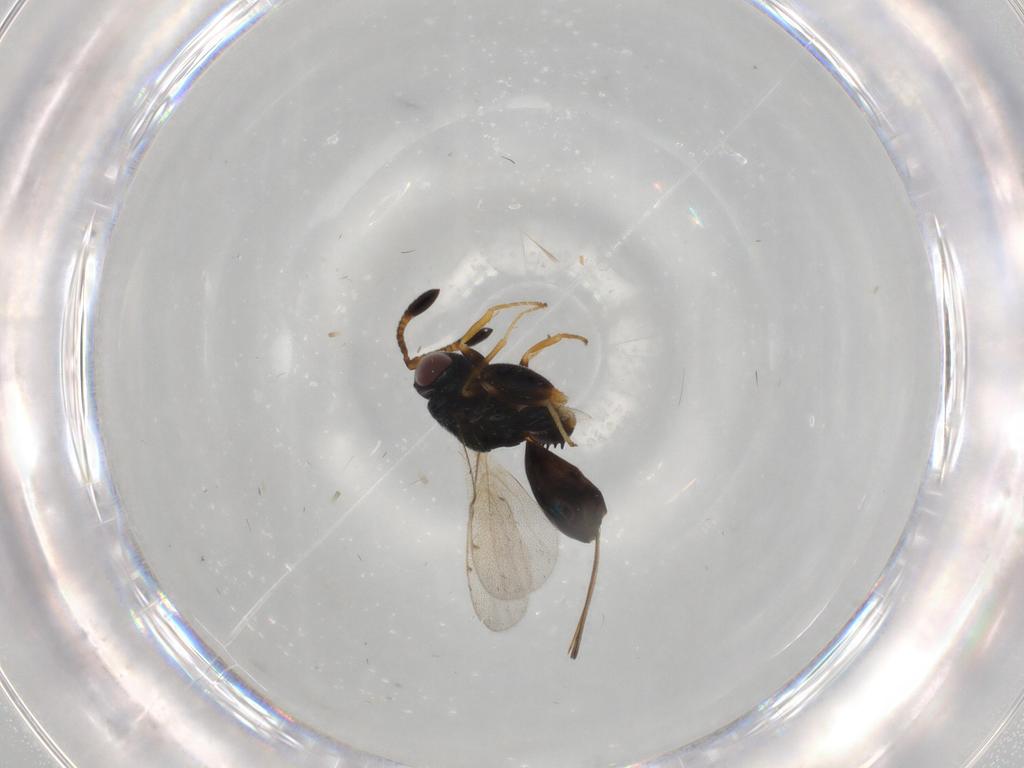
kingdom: Animalia
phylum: Arthropoda
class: Insecta
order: Hymenoptera
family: Torymidae
